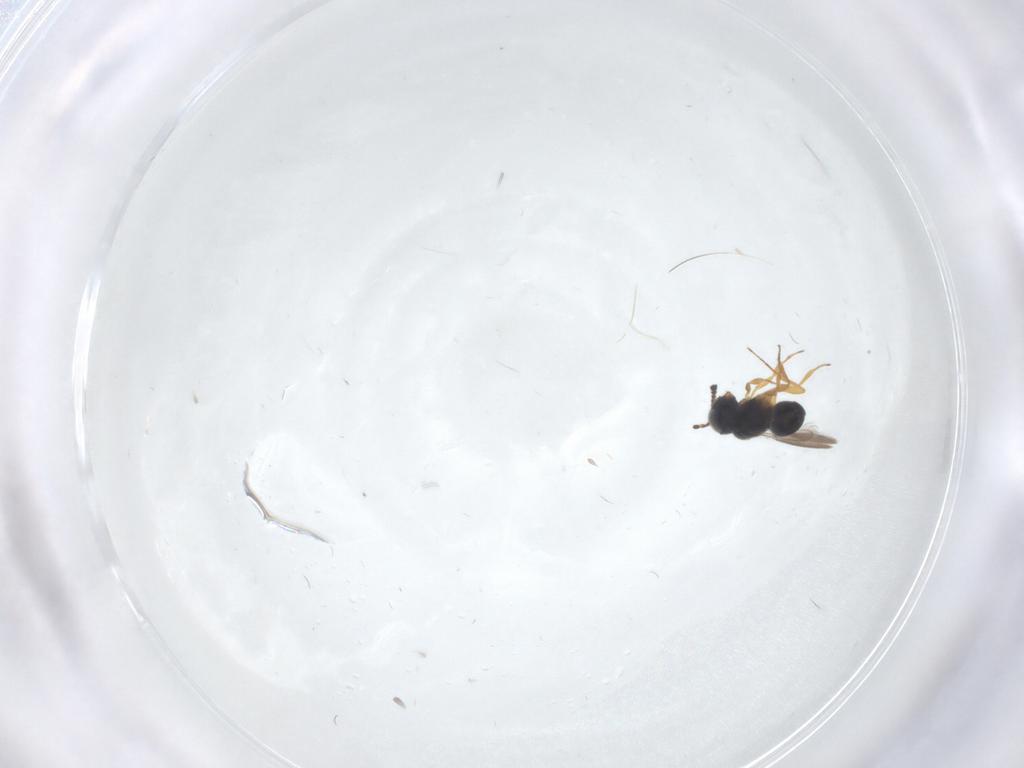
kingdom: Animalia
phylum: Arthropoda
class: Insecta
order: Hymenoptera
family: Scelionidae
